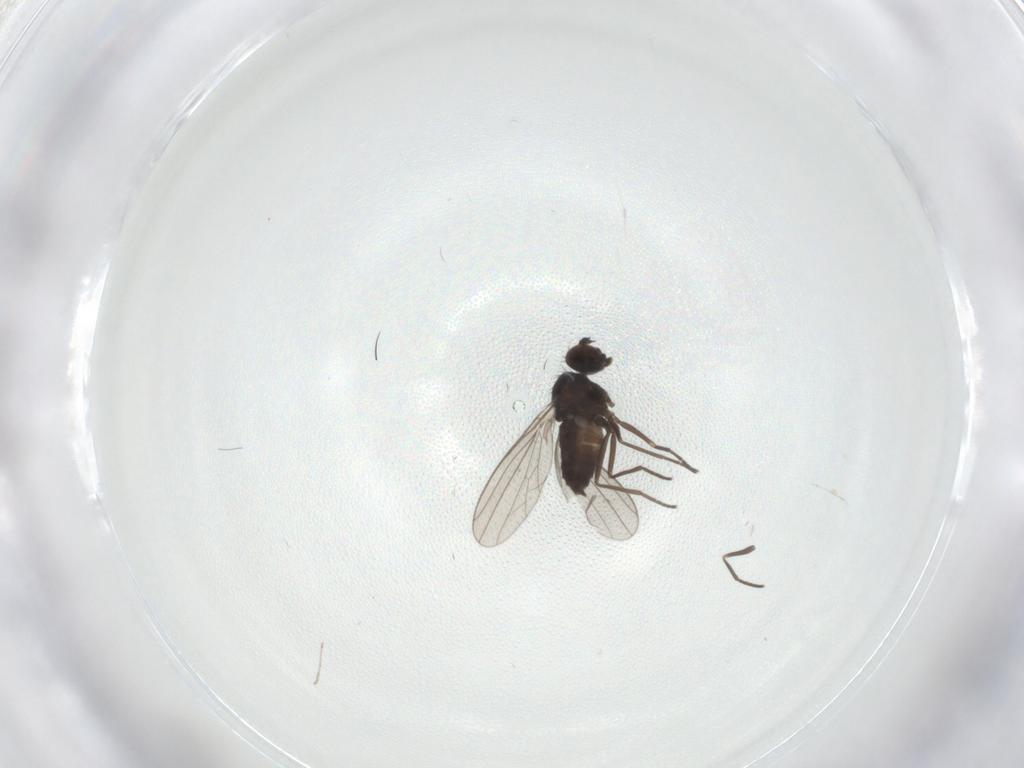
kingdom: Animalia
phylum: Arthropoda
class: Insecta
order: Diptera
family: Dolichopodidae
